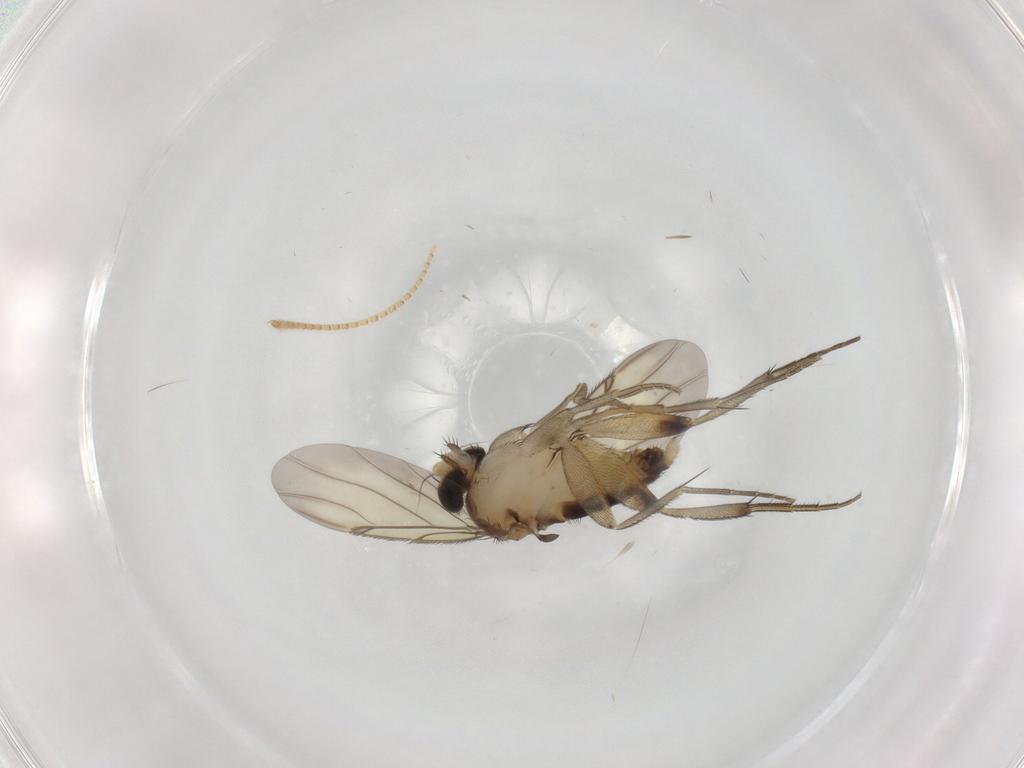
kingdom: Animalia
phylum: Arthropoda
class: Insecta
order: Diptera
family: Phoridae
